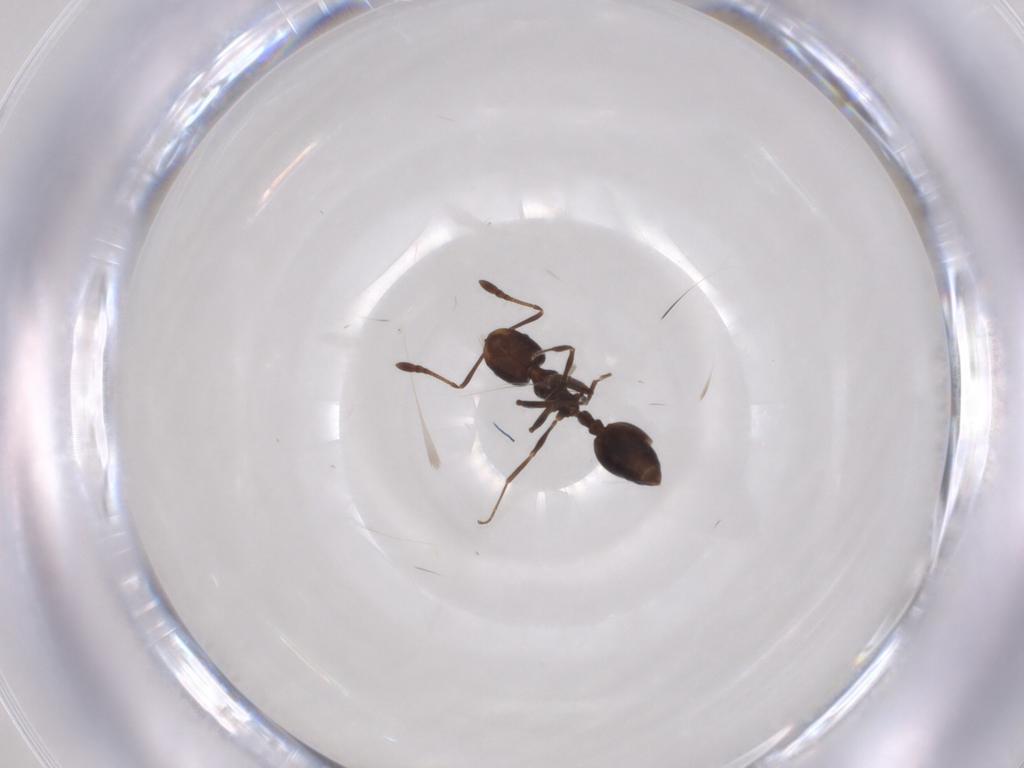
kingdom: Animalia
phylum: Arthropoda
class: Insecta
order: Hymenoptera
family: Formicidae
